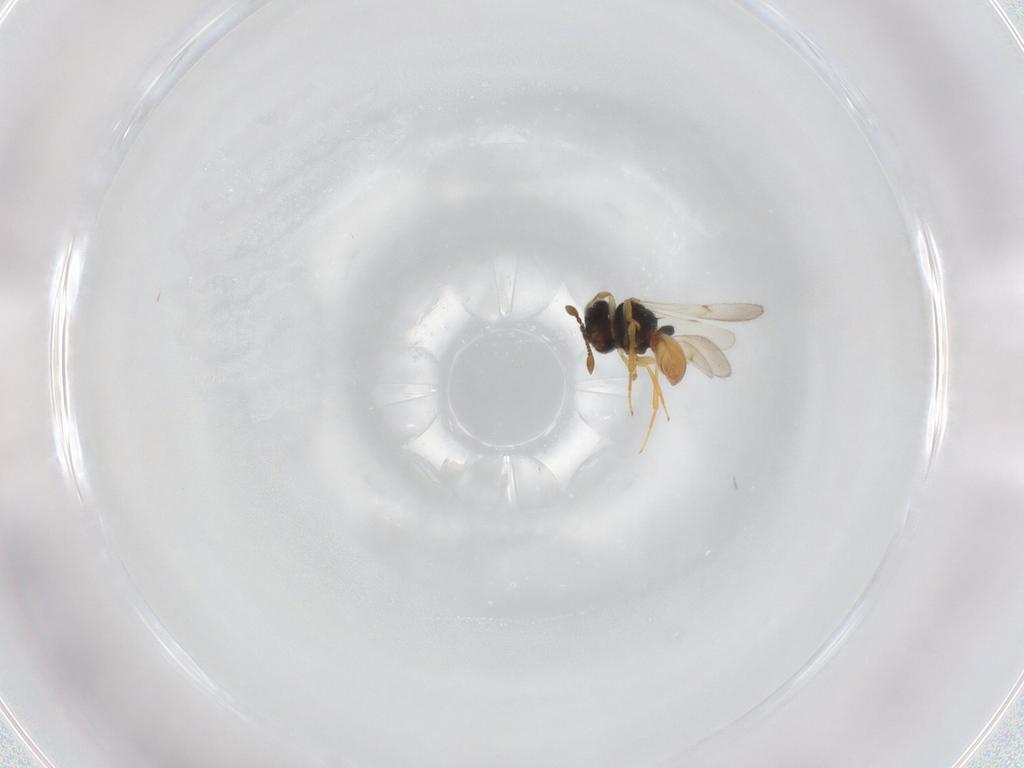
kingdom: Animalia
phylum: Arthropoda
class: Insecta
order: Hymenoptera
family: Scelionidae
